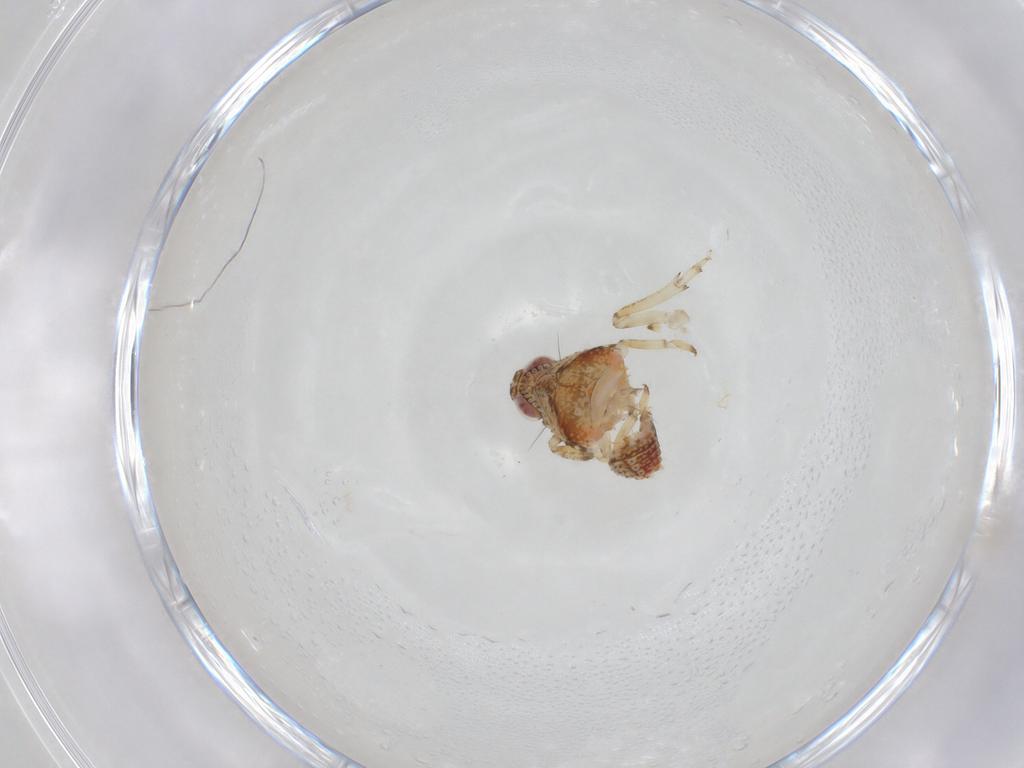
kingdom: Animalia
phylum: Arthropoda
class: Insecta
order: Hemiptera
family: Issidae
